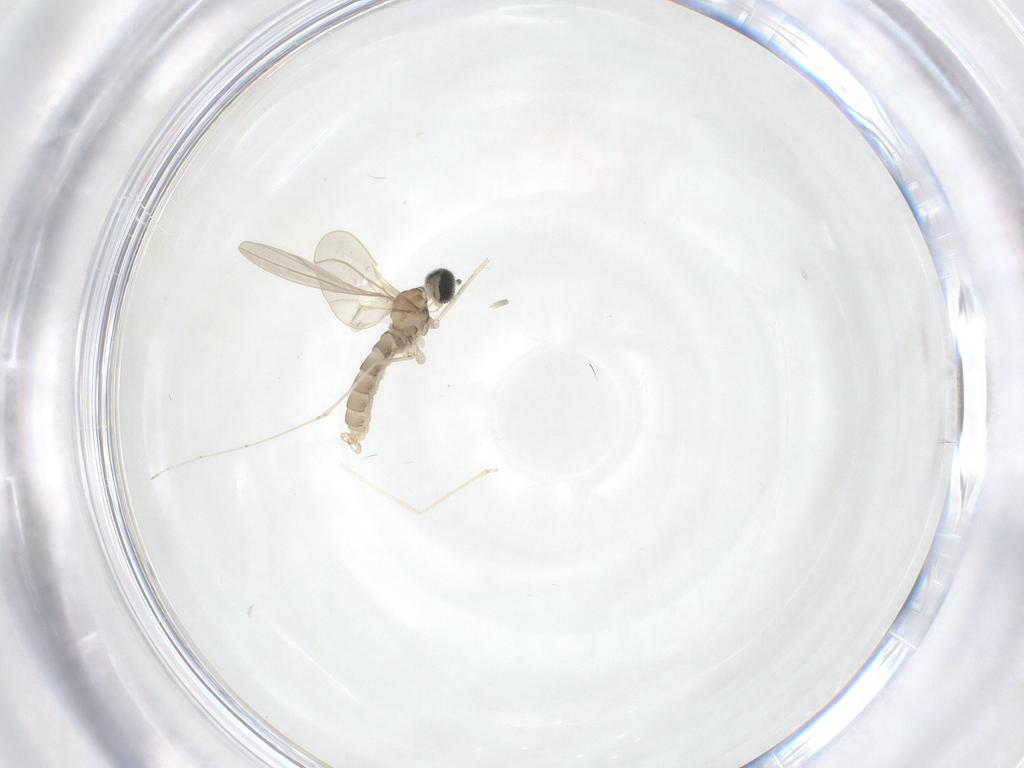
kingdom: Animalia
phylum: Arthropoda
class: Insecta
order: Diptera
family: Cecidomyiidae
